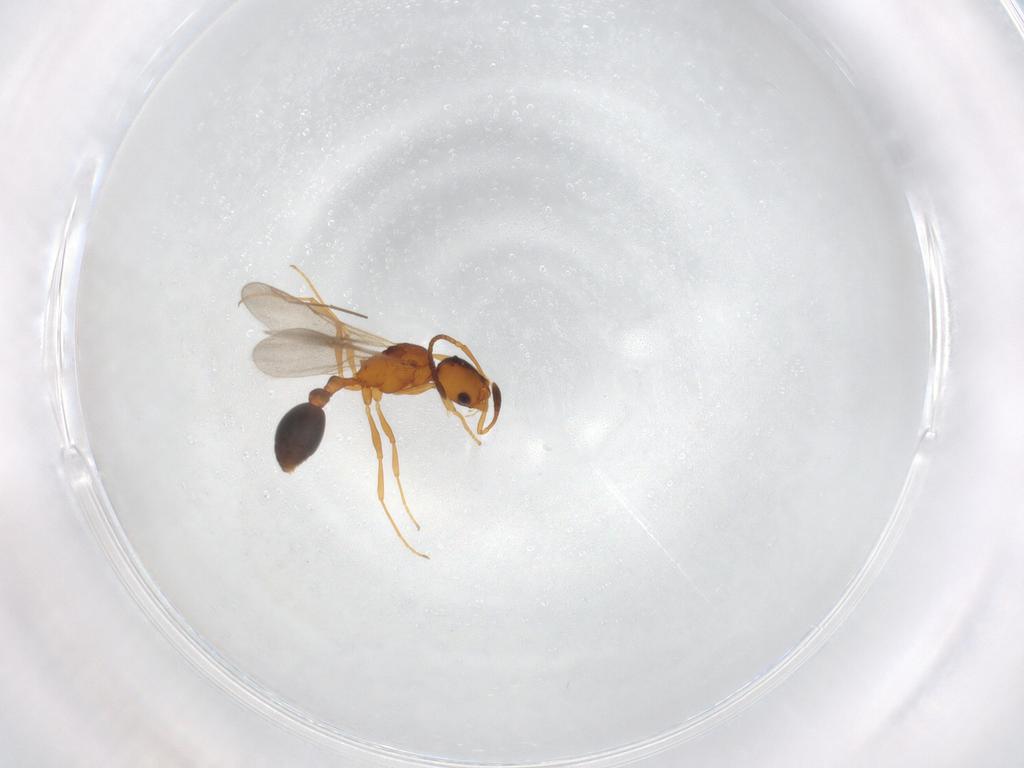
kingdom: Animalia
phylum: Arthropoda
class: Insecta
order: Hymenoptera
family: Formicidae
